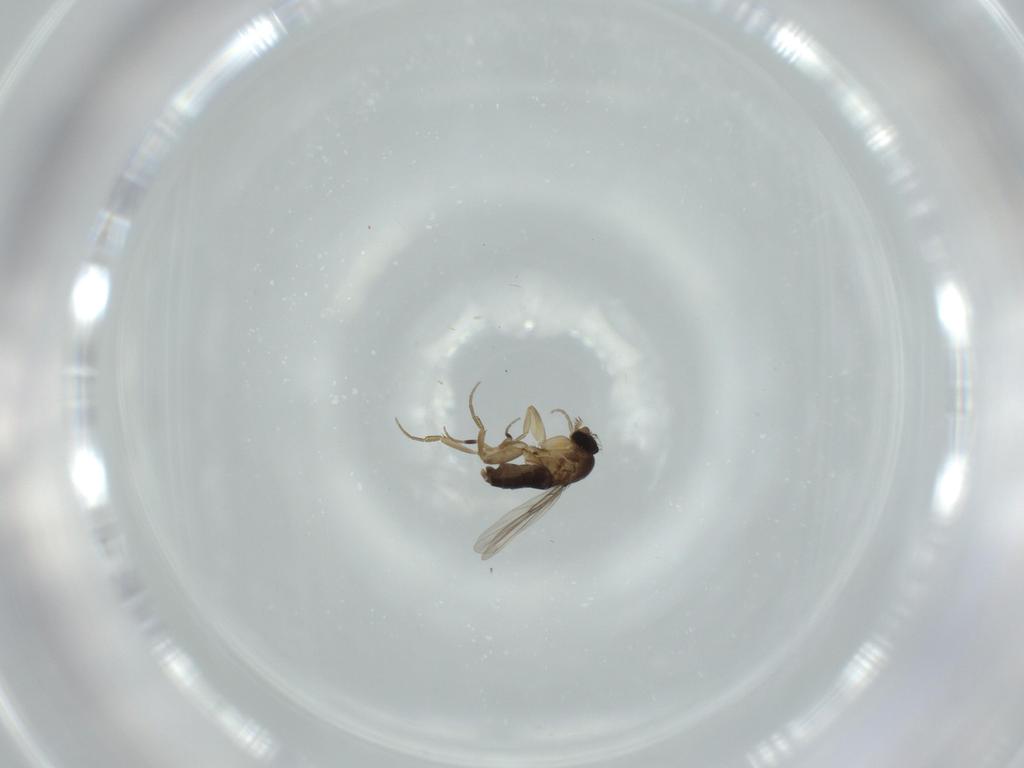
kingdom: Animalia
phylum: Arthropoda
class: Insecta
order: Diptera
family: Phoridae
